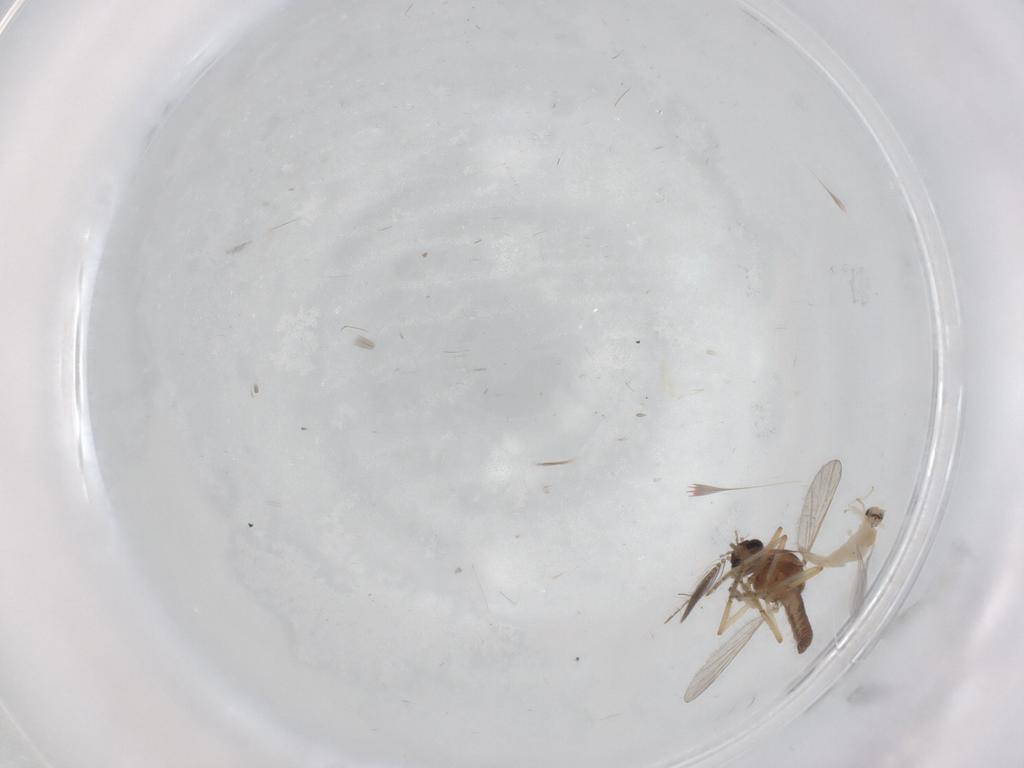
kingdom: Animalia
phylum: Arthropoda
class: Insecta
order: Diptera
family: Cecidomyiidae
